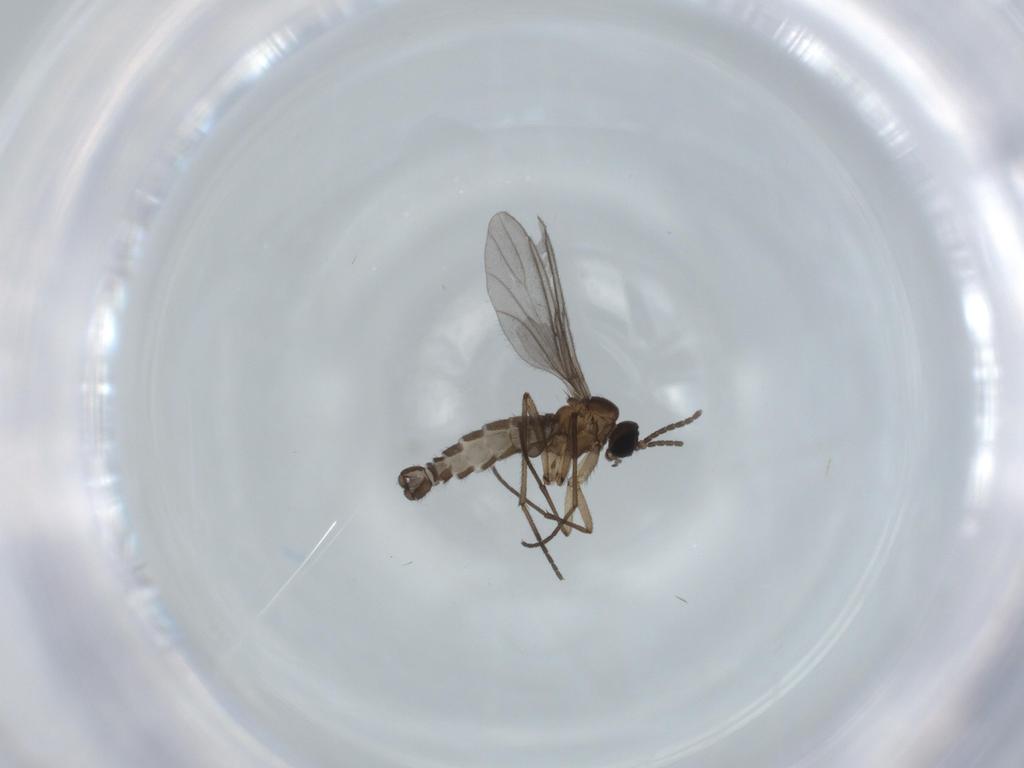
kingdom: Animalia
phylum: Arthropoda
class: Insecta
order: Diptera
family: Sciaridae
